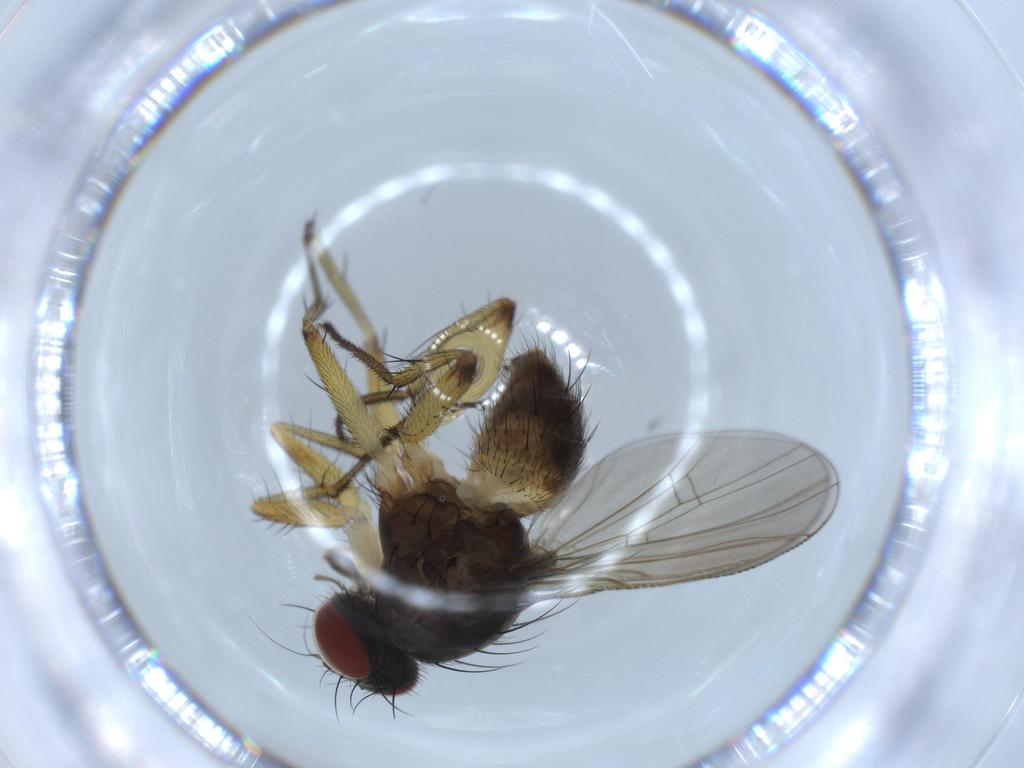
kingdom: Animalia
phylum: Arthropoda
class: Insecta
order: Diptera
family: Muscidae
